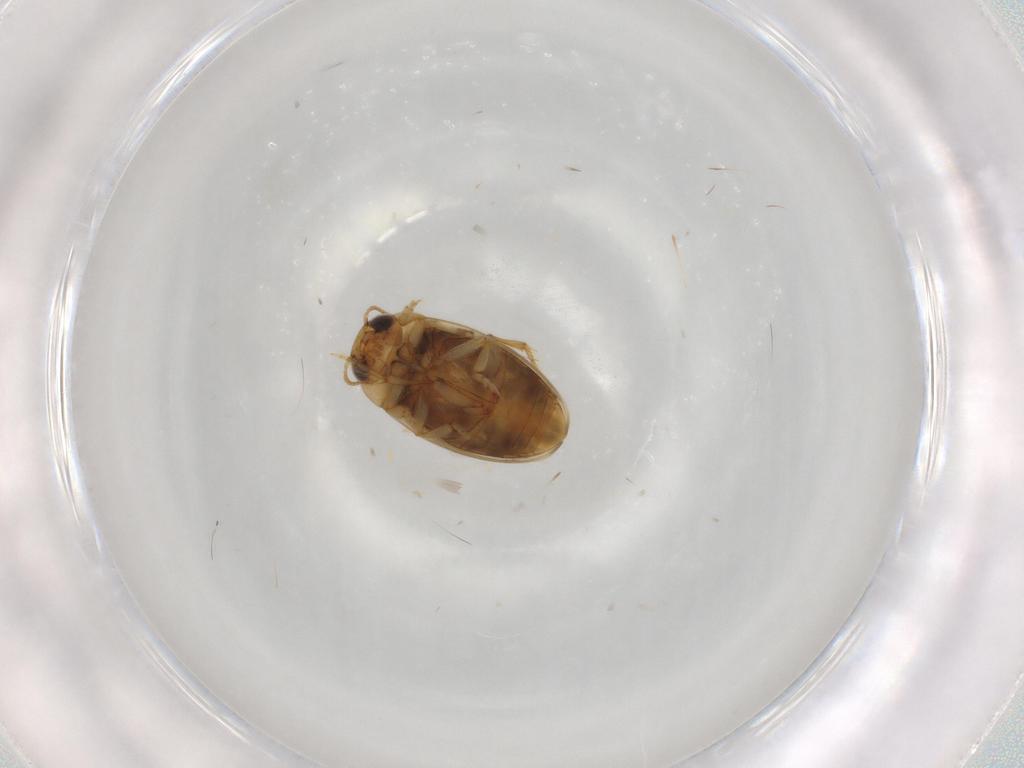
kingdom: Animalia
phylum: Arthropoda
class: Insecta
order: Coleoptera
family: Dytiscidae
